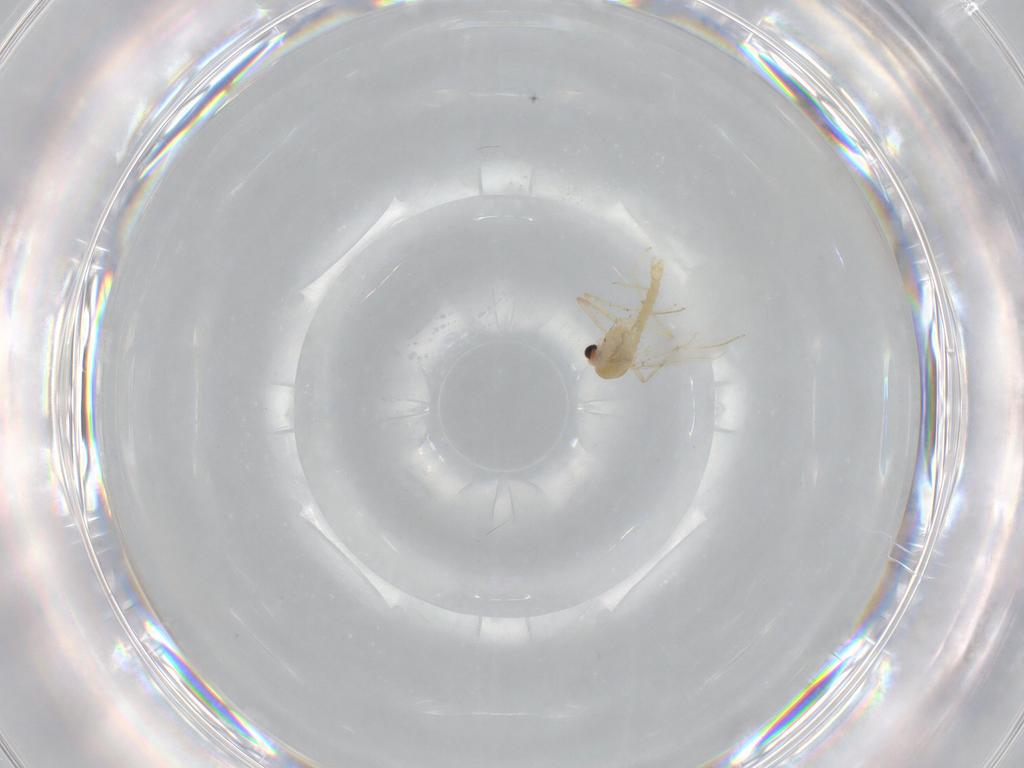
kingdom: Animalia
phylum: Arthropoda
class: Insecta
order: Diptera
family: Chironomidae
